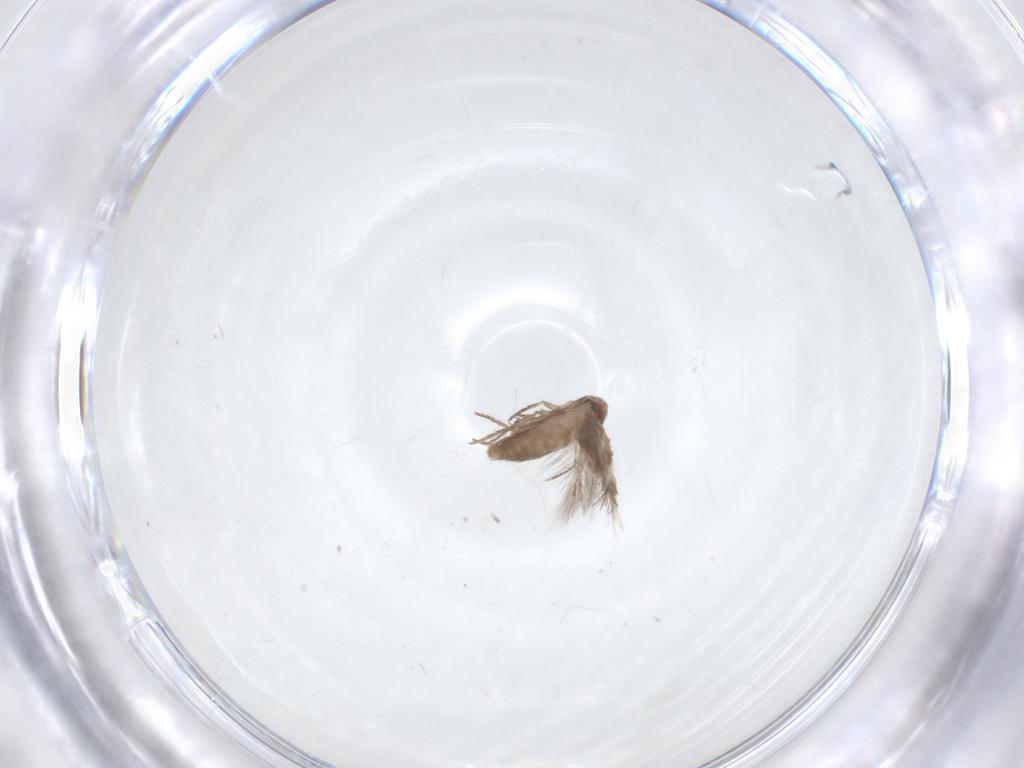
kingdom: Animalia
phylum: Arthropoda
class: Insecta
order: Lepidoptera
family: Lyonetiidae
